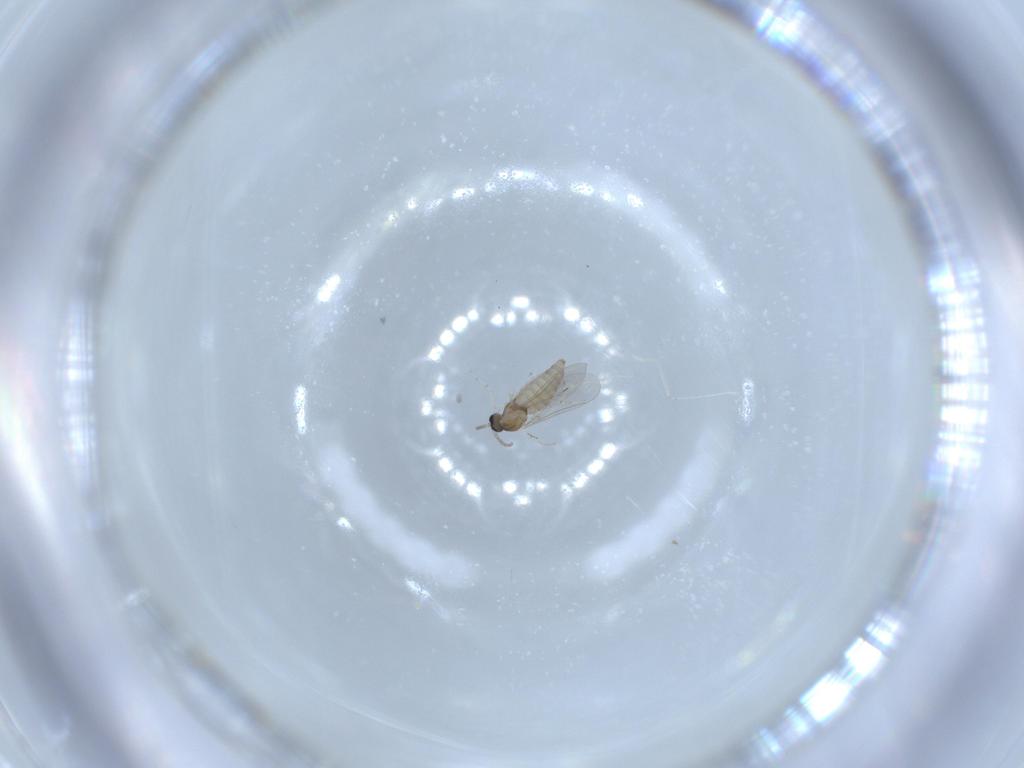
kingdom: Animalia
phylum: Arthropoda
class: Insecta
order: Diptera
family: Cecidomyiidae
